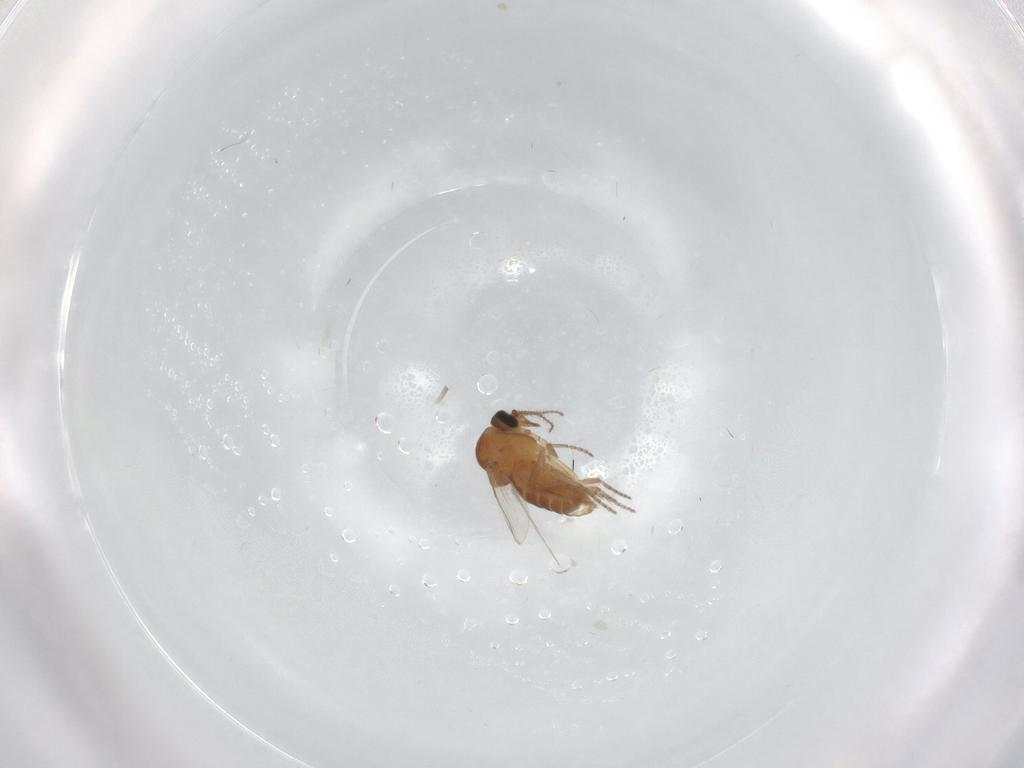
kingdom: Animalia
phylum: Arthropoda
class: Insecta
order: Diptera
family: Ceratopogonidae
